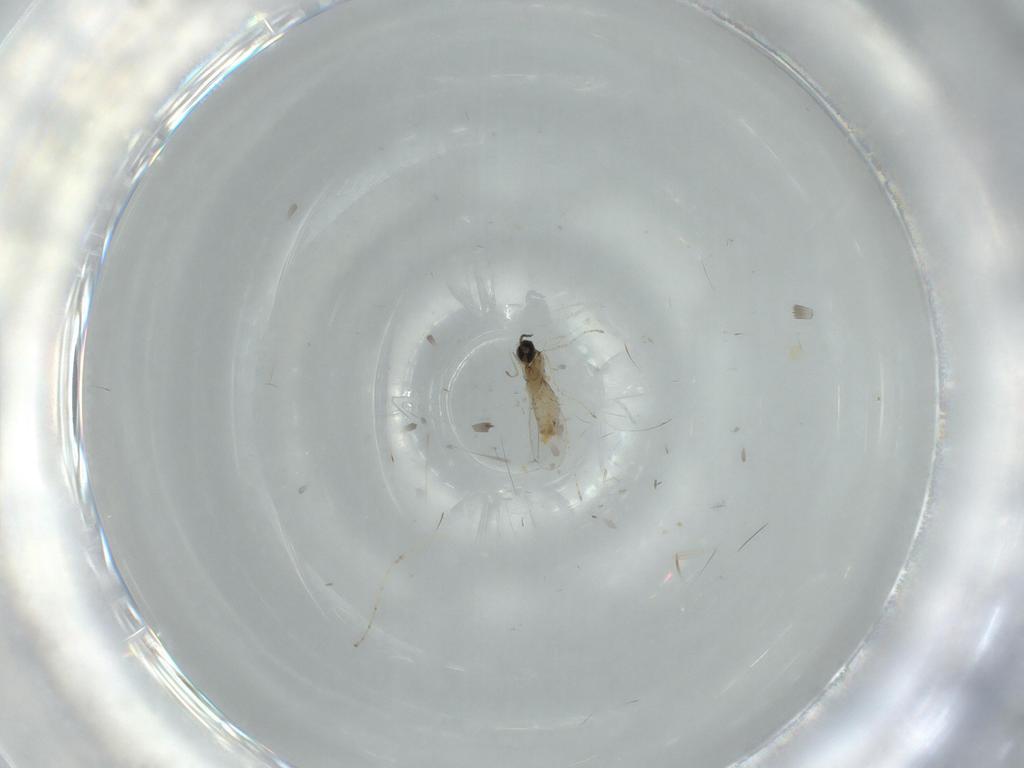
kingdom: Animalia
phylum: Arthropoda
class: Insecta
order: Diptera
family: Cecidomyiidae
